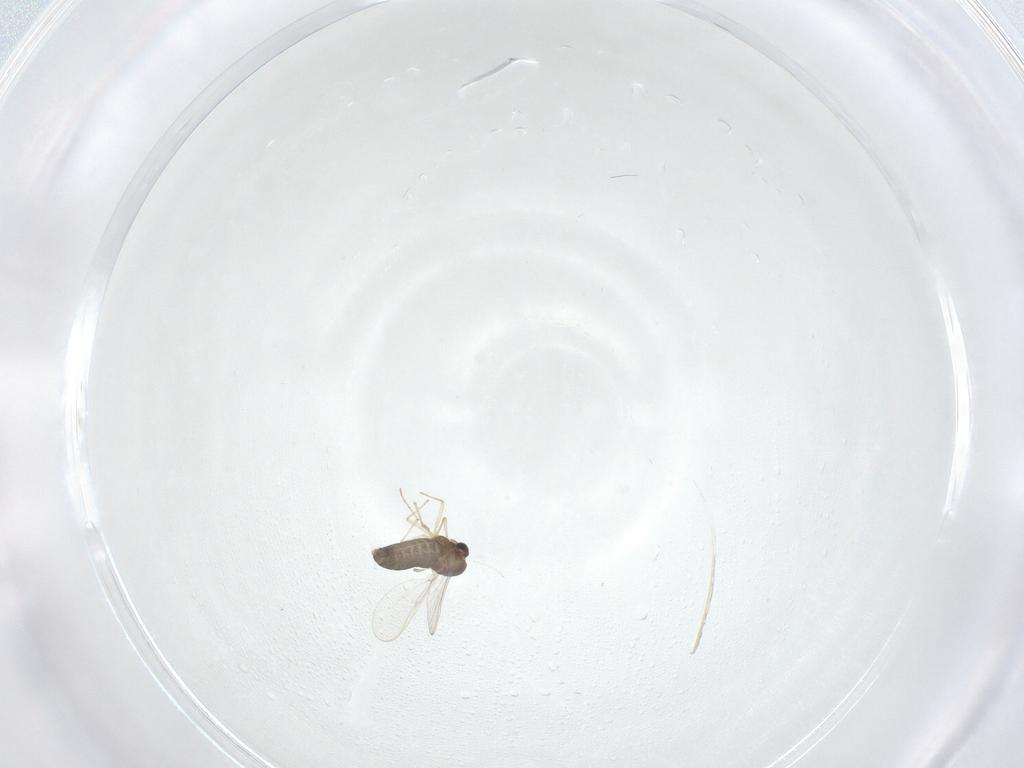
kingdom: Animalia
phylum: Arthropoda
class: Insecta
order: Diptera
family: Chironomidae
